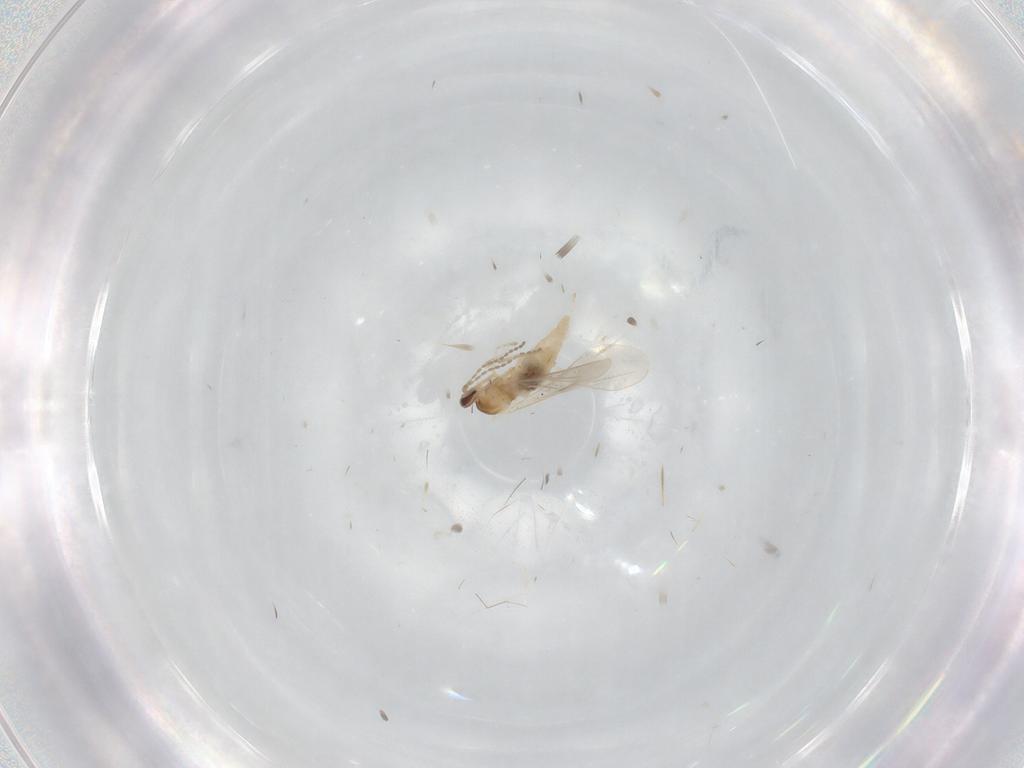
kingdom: Animalia
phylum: Arthropoda
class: Insecta
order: Diptera
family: Cecidomyiidae
